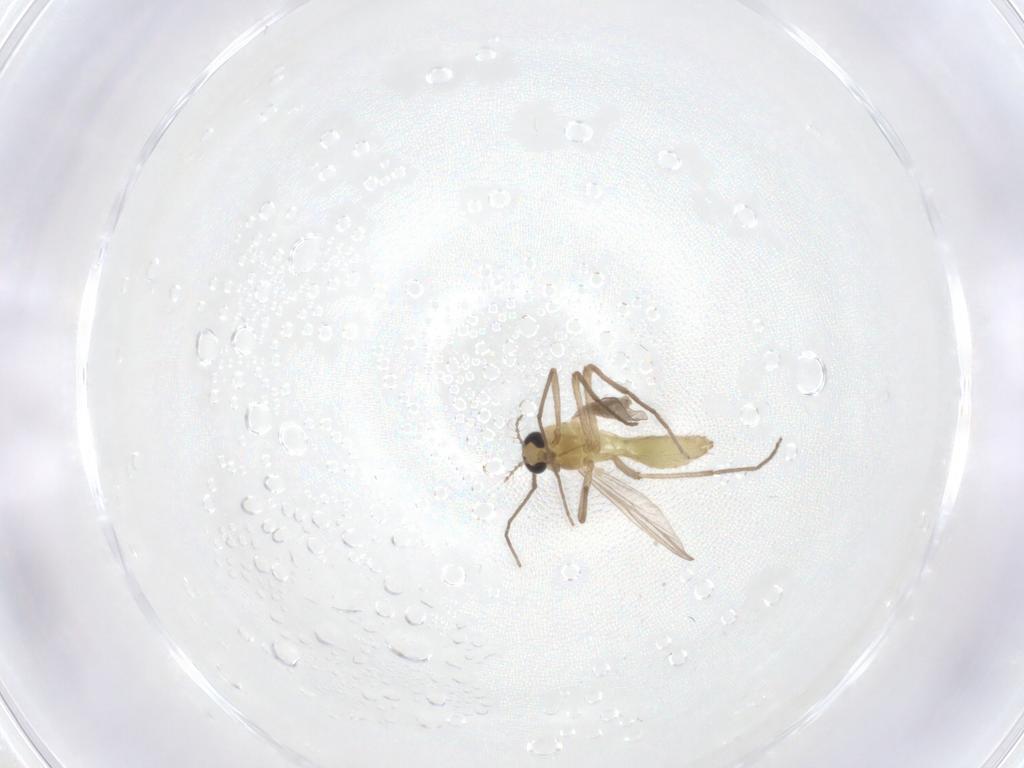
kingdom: Animalia
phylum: Arthropoda
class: Insecta
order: Diptera
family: Chironomidae
